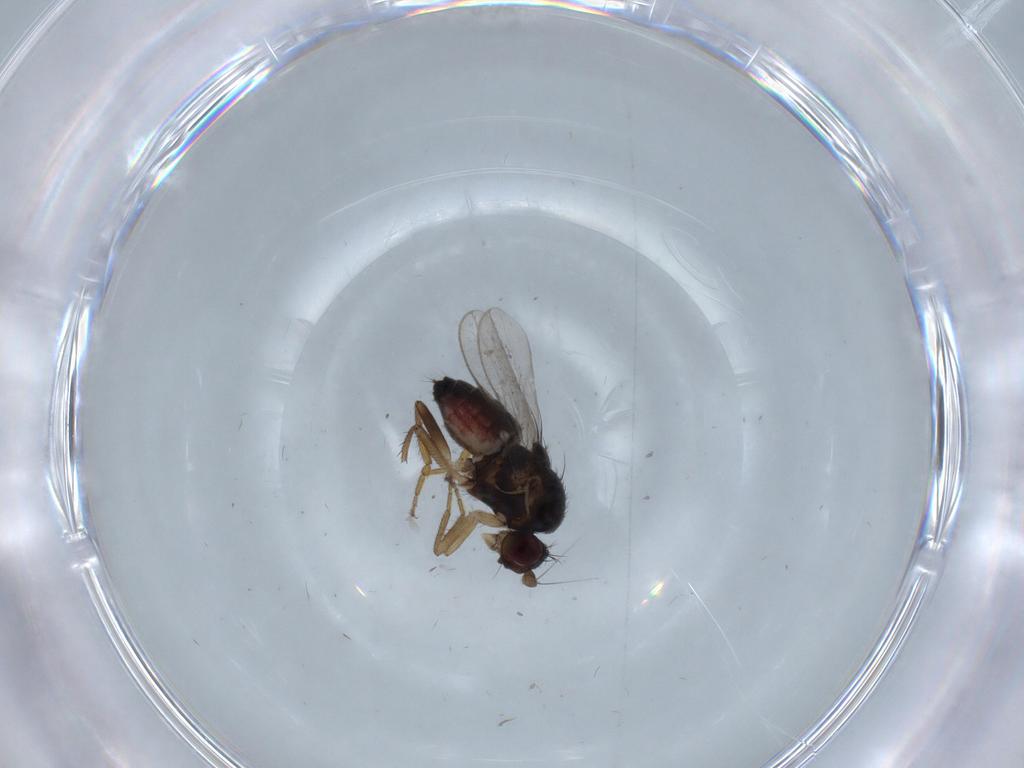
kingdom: Animalia
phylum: Arthropoda
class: Insecta
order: Diptera
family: Sphaeroceridae
